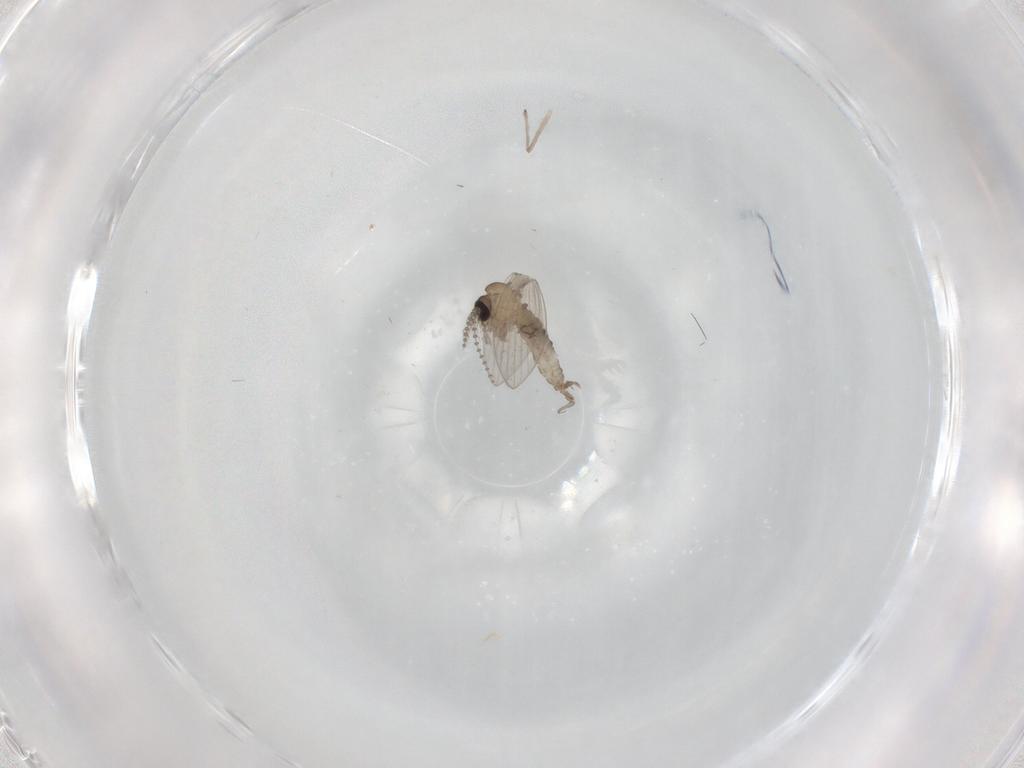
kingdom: Animalia
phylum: Arthropoda
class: Insecta
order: Diptera
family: Psychodidae
